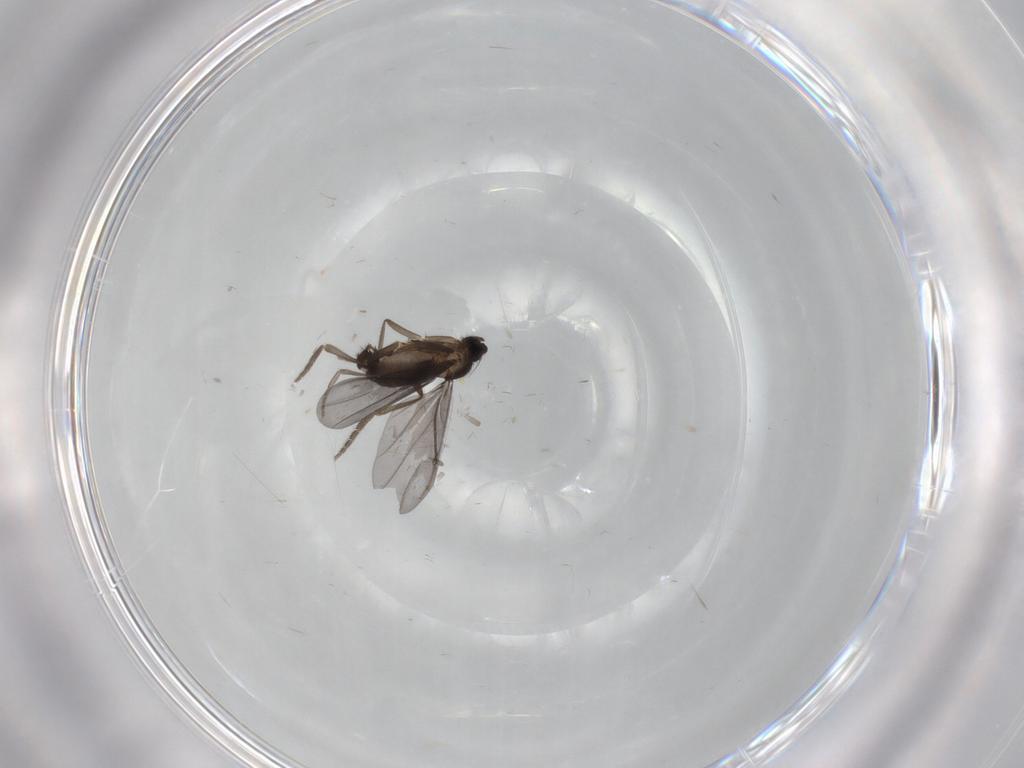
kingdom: Animalia
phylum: Arthropoda
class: Insecta
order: Diptera
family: Phoridae
